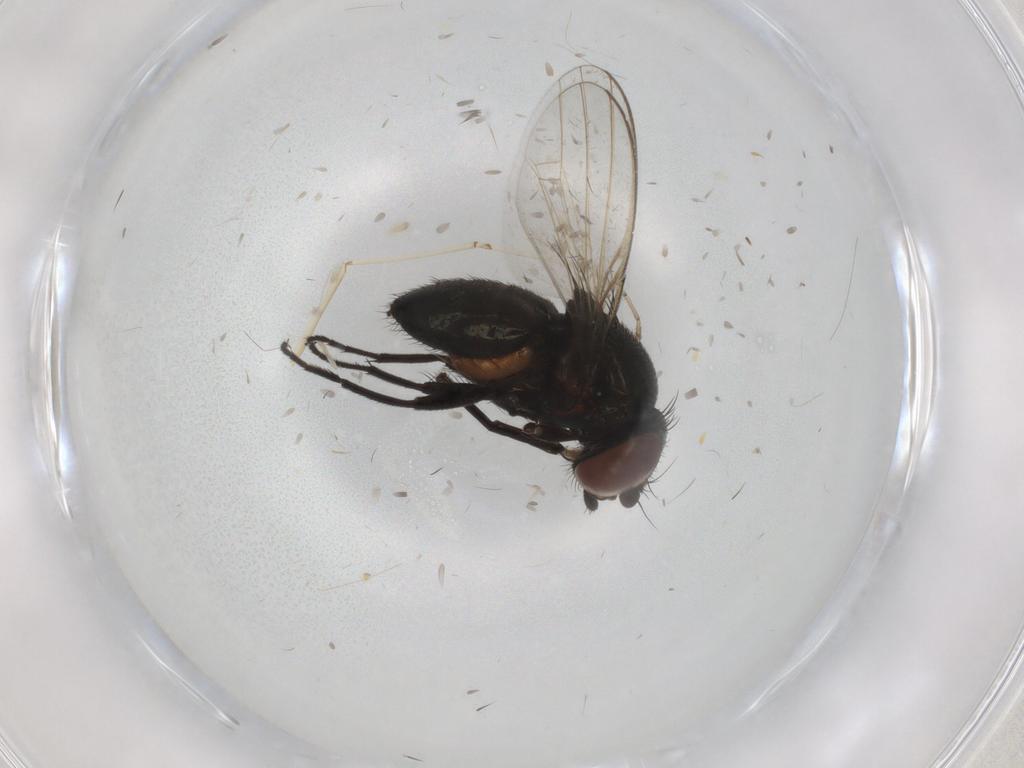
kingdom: Animalia
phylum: Arthropoda
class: Insecta
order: Diptera
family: Milichiidae
